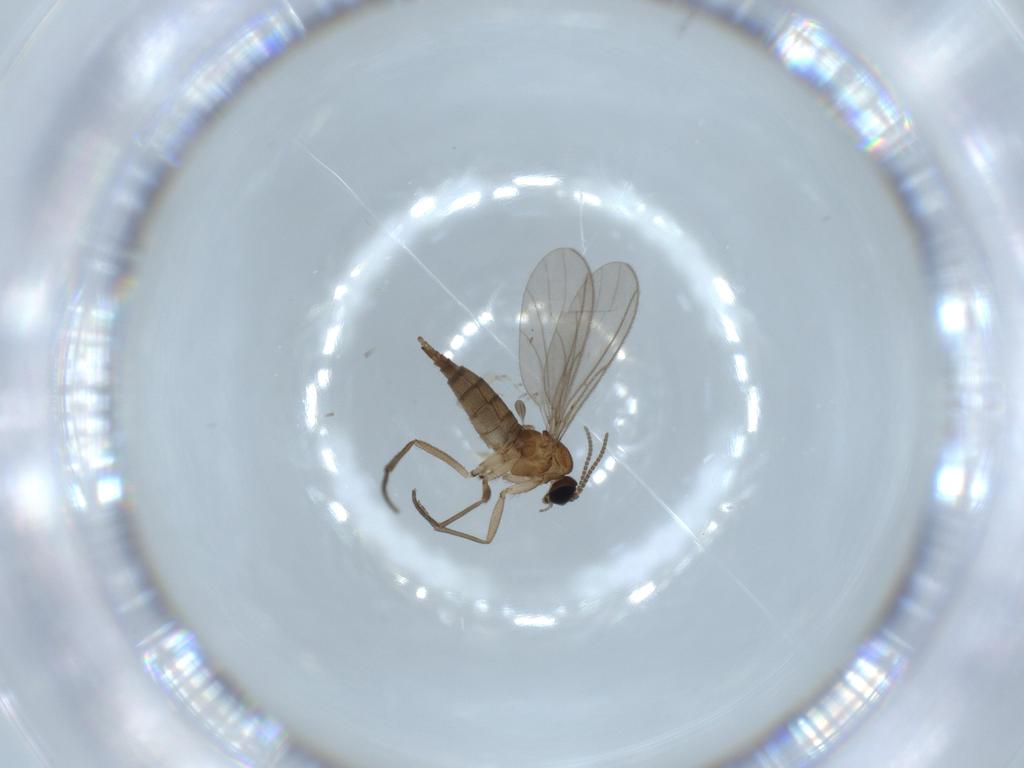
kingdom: Animalia
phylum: Arthropoda
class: Insecta
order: Diptera
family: Sciaridae
